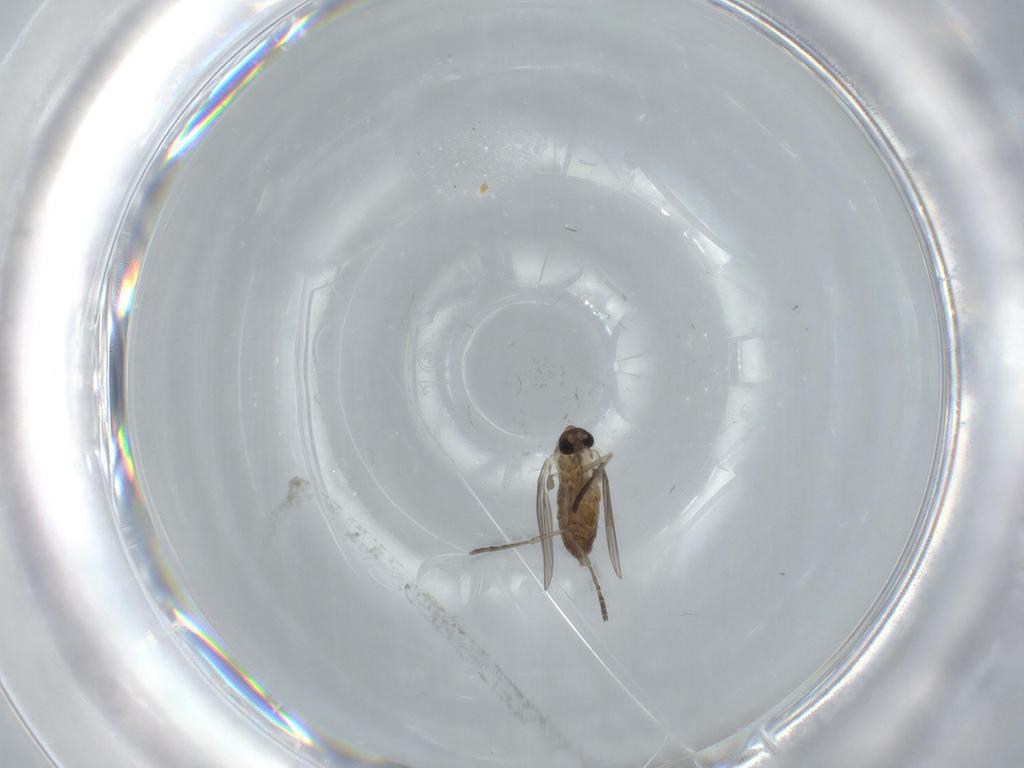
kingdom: Animalia
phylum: Arthropoda
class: Insecta
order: Diptera
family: Psychodidae
